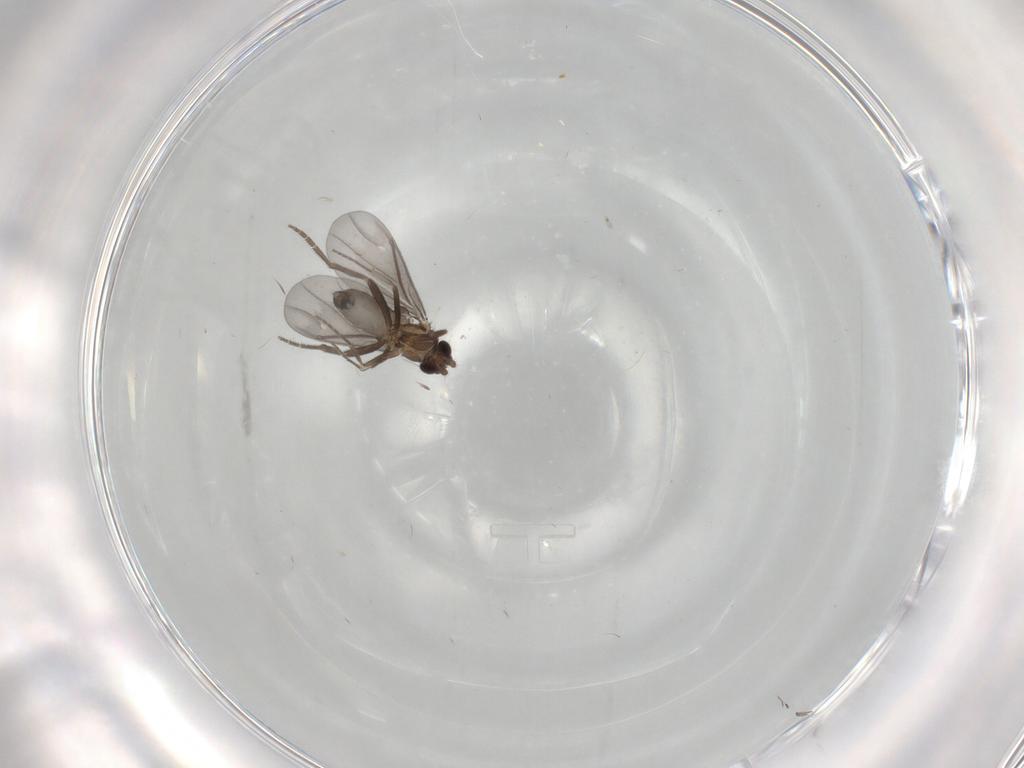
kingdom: Animalia
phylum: Arthropoda
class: Insecta
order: Diptera
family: Phoridae
